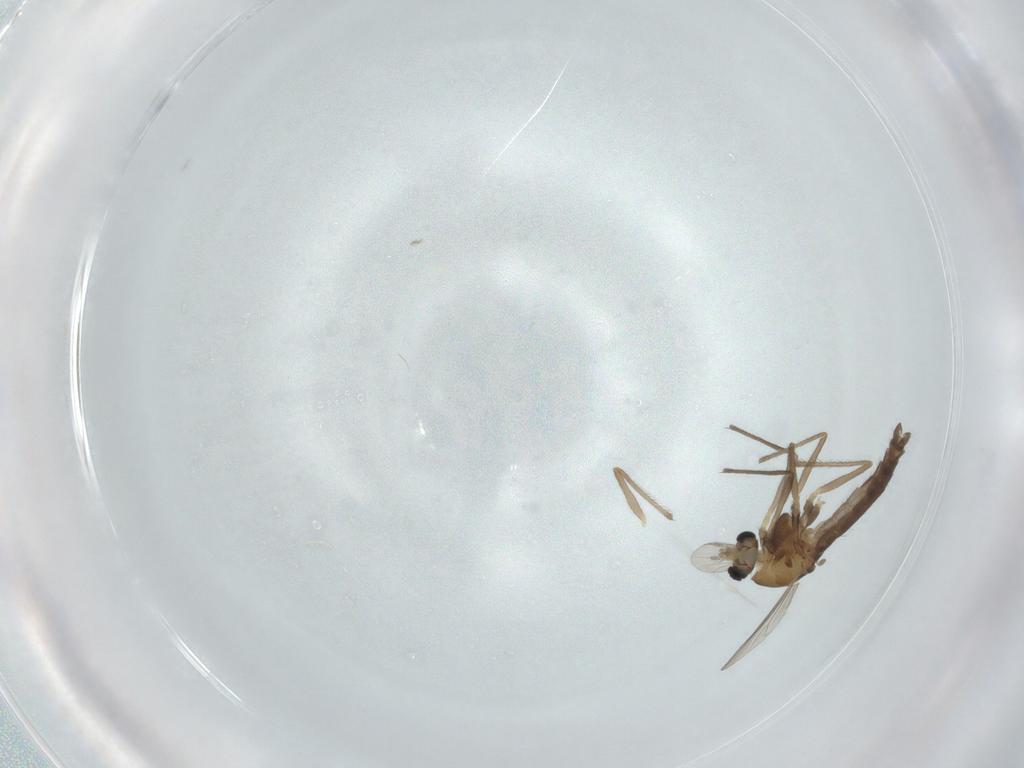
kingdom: Animalia
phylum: Arthropoda
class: Insecta
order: Diptera
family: Chironomidae
